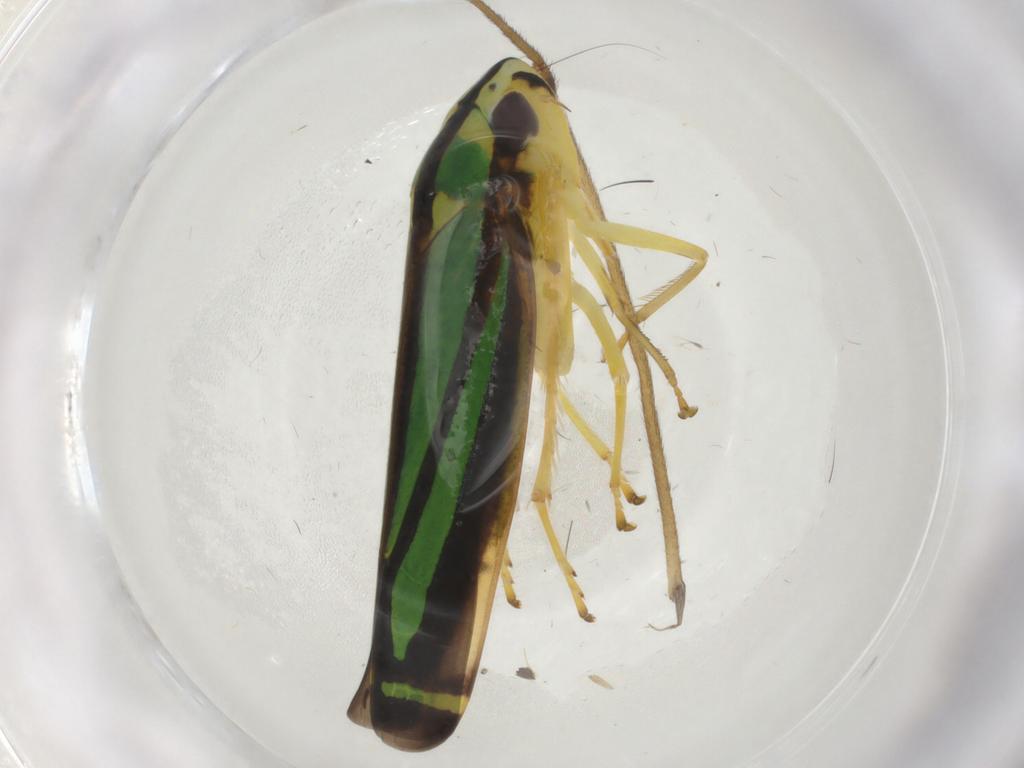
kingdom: Animalia
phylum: Arthropoda
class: Insecta
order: Hemiptera
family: Cicadellidae
